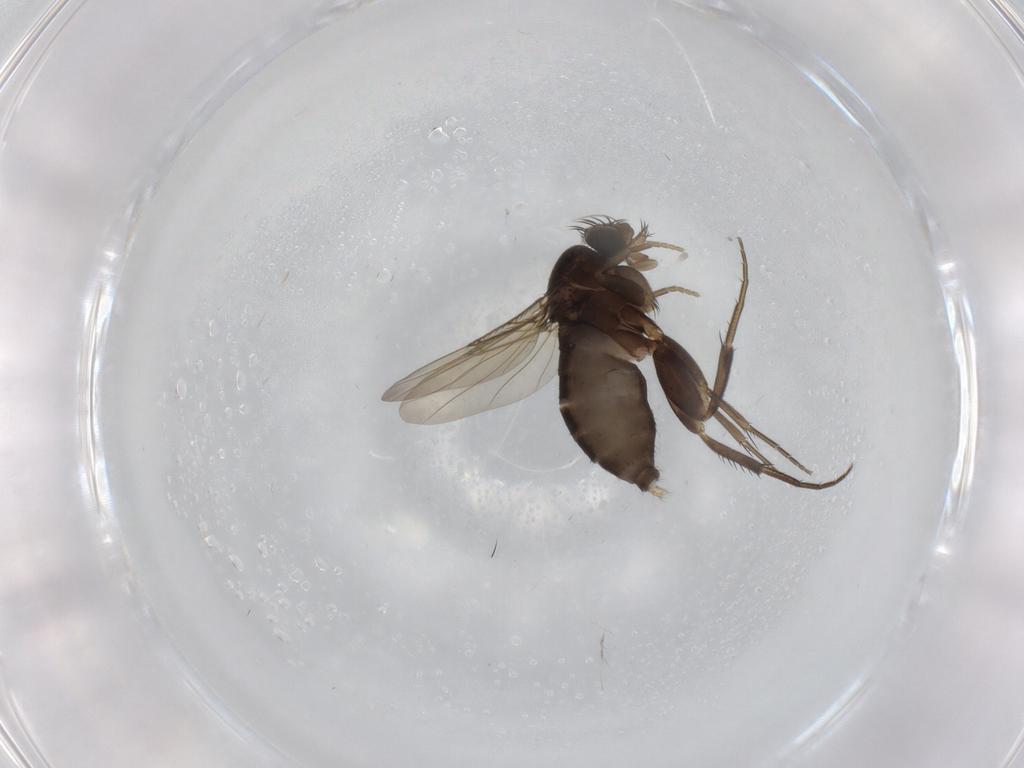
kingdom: Animalia
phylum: Arthropoda
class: Insecta
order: Diptera
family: Phoridae
